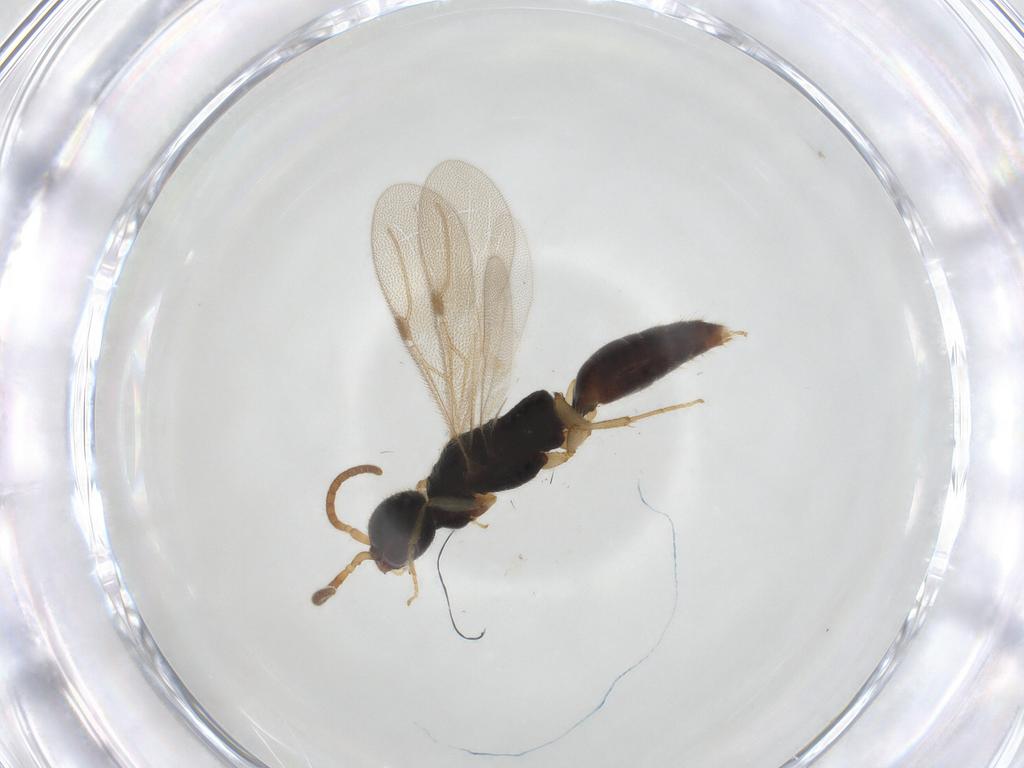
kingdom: Animalia
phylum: Arthropoda
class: Insecta
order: Hymenoptera
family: Bethylidae
